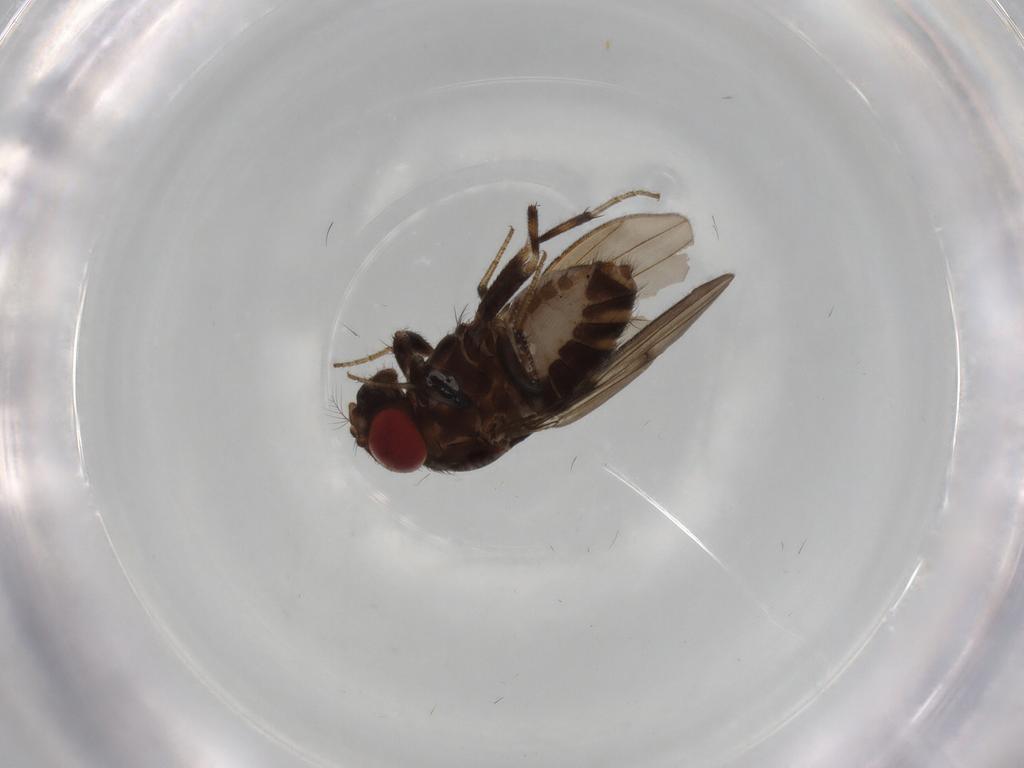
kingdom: Animalia
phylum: Arthropoda
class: Insecta
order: Diptera
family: Drosophilidae
